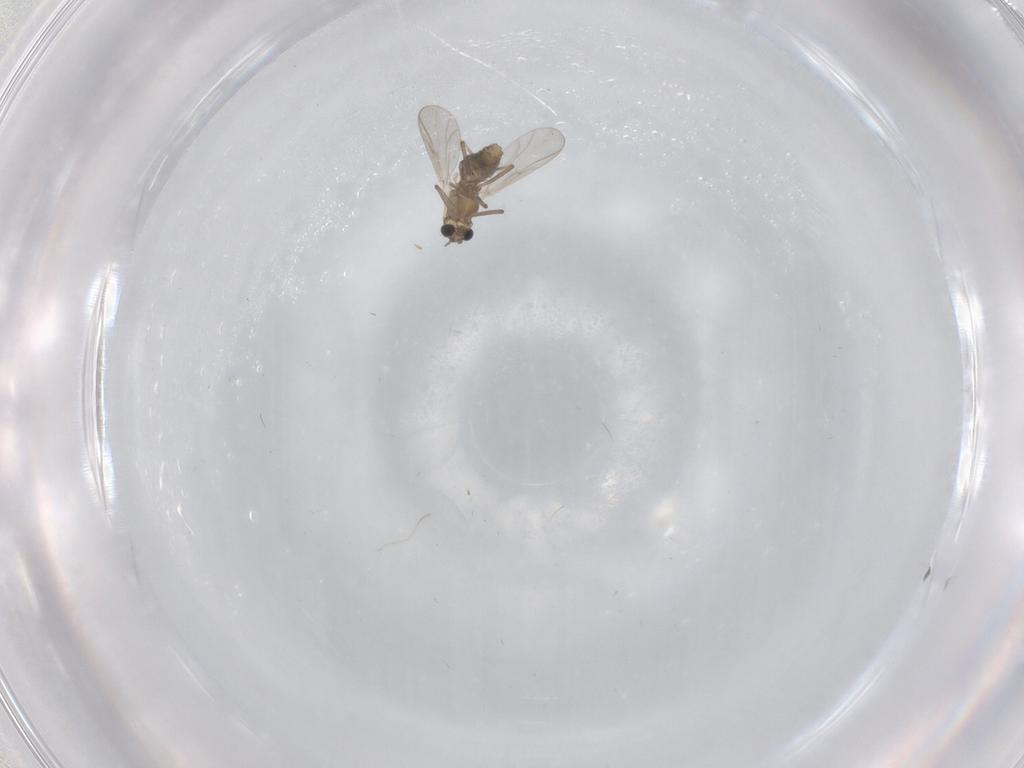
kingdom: Animalia
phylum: Arthropoda
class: Insecta
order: Diptera
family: Chironomidae
